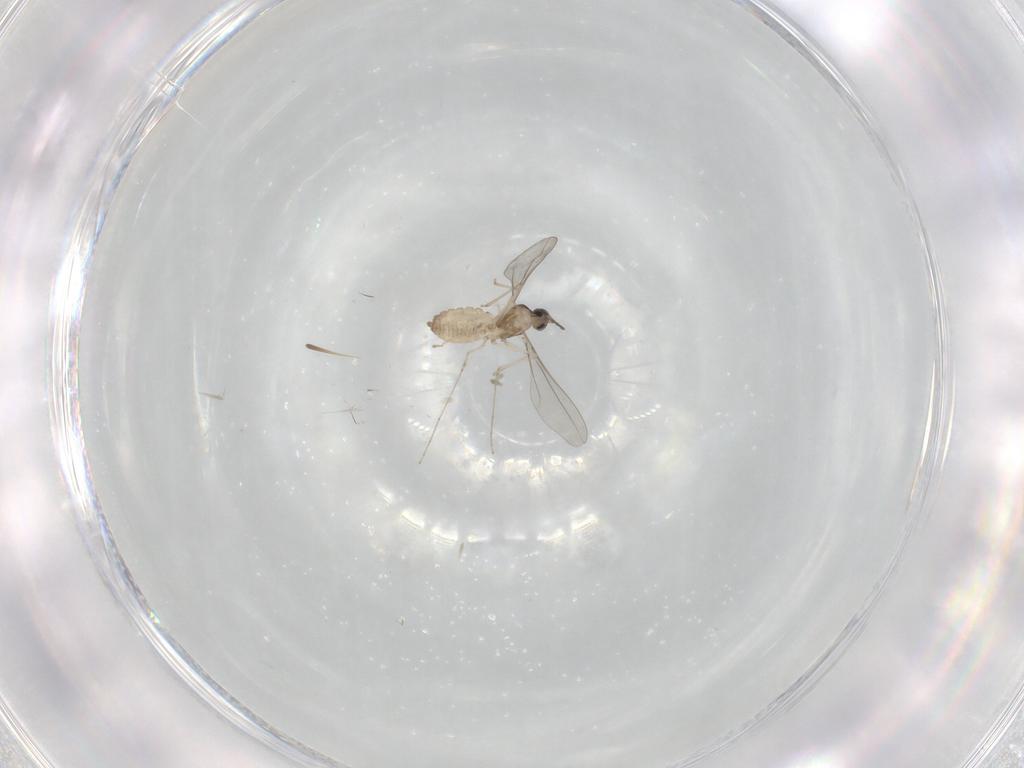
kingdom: Animalia
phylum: Arthropoda
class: Insecta
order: Diptera
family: Cecidomyiidae
